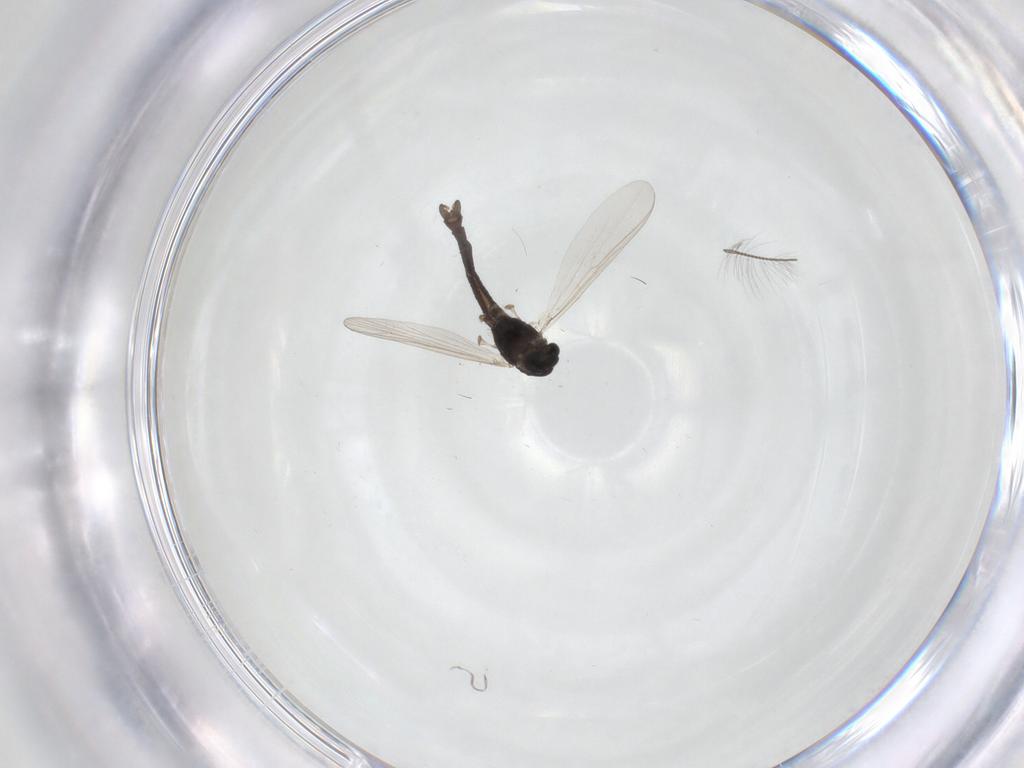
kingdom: Animalia
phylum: Arthropoda
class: Insecta
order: Diptera
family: Chironomidae
